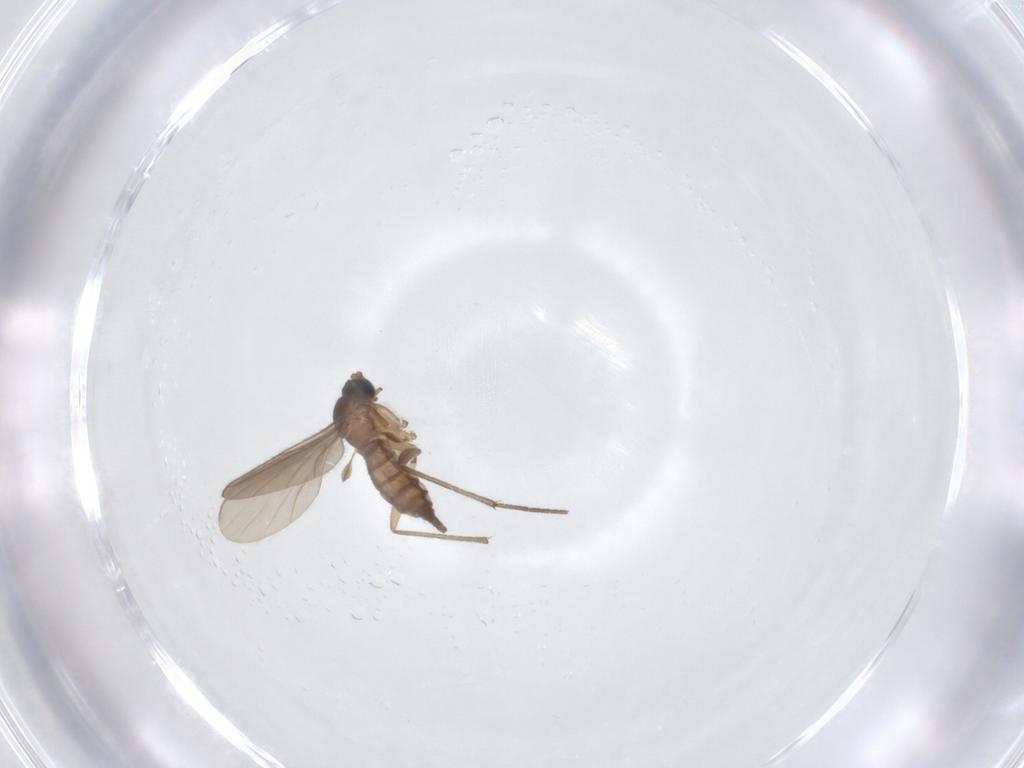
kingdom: Animalia
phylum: Arthropoda
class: Insecta
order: Diptera
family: Sciaridae
